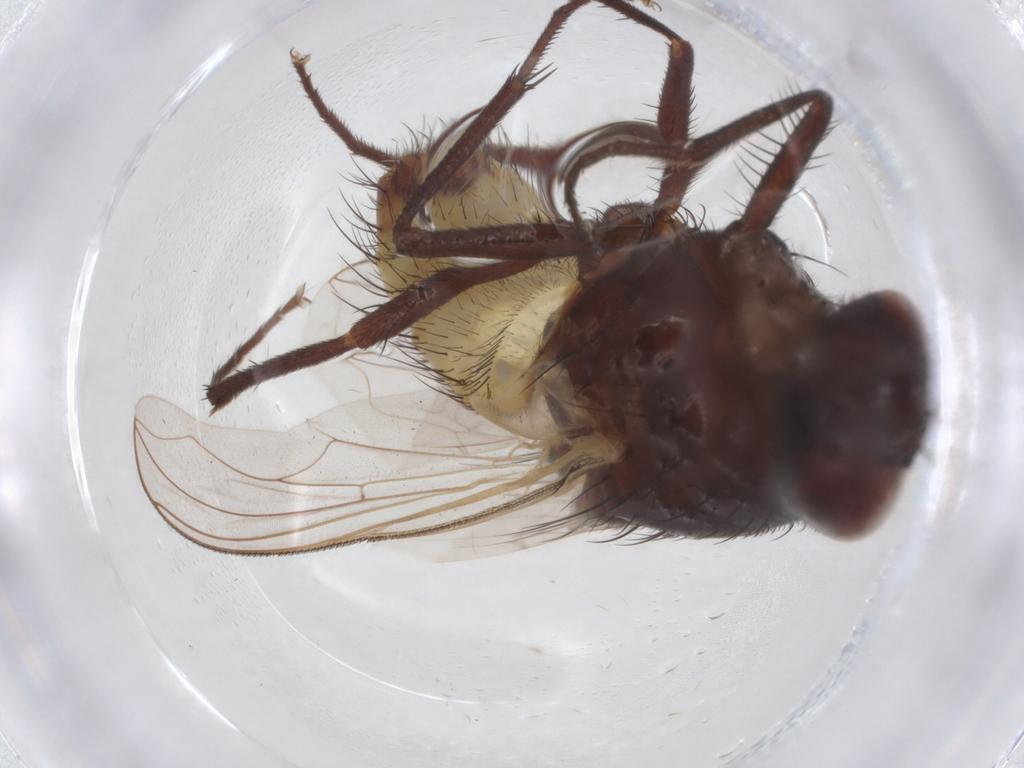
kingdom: Animalia
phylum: Arthropoda
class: Insecta
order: Diptera
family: Muscidae
